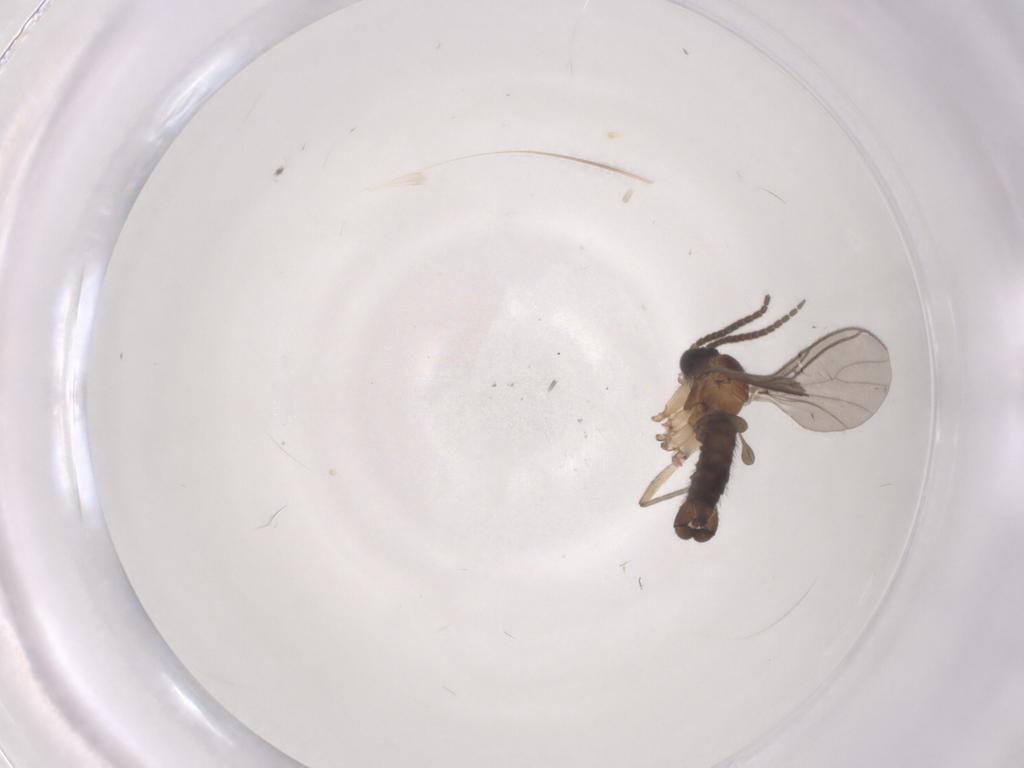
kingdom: Animalia
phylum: Arthropoda
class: Insecta
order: Diptera
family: Sciaridae
